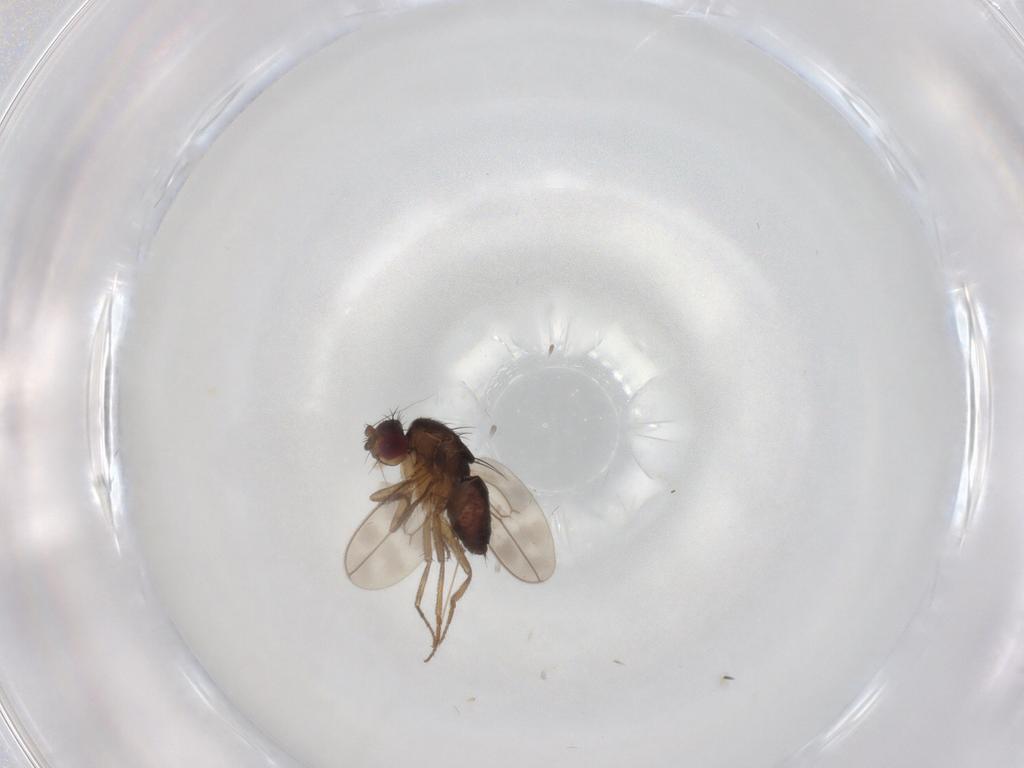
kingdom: Animalia
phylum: Arthropoda
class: Insecta
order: Diptera
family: Sphaeroceridae
